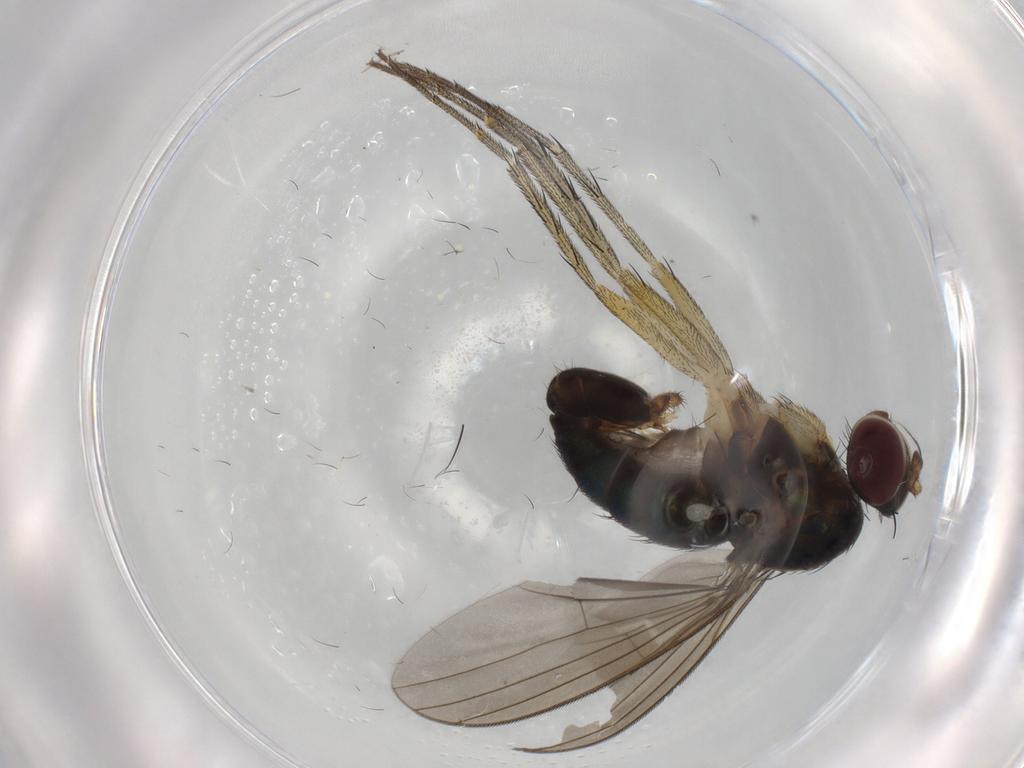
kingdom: Animalia
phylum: Arthropoda
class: Insecta
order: Diptera
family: Dolichopodidae
